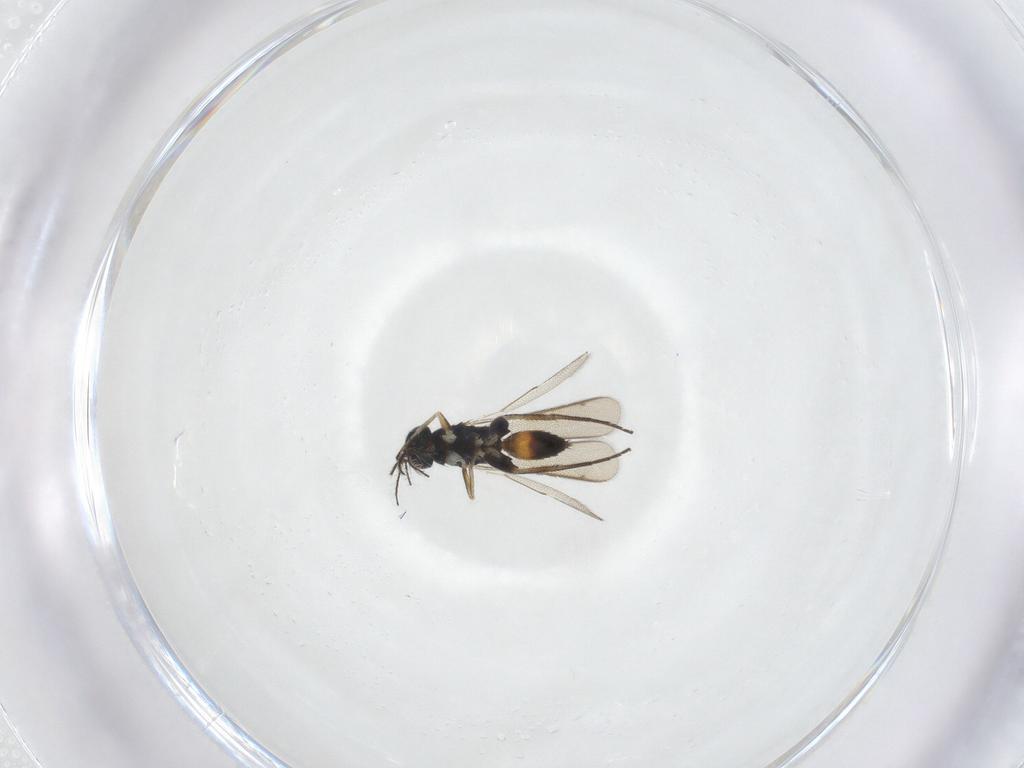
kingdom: Animalia
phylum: Arthropoda
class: Insecta
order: Hymenoptera
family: Eulophidae
